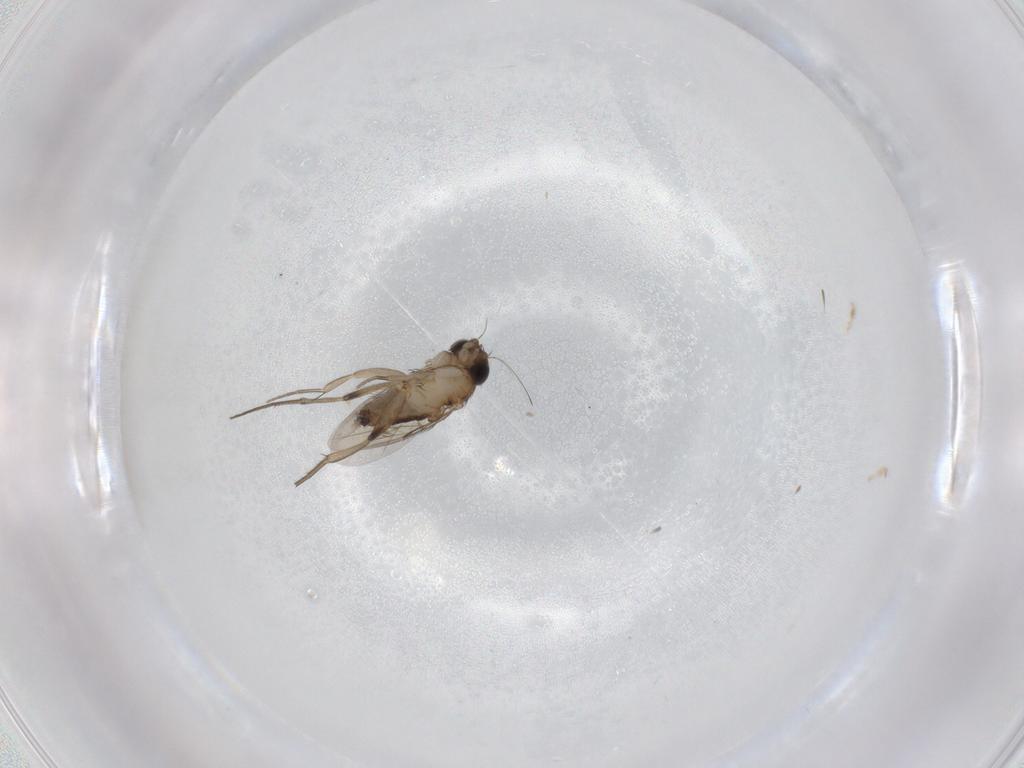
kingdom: Animalia
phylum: Arthropoda
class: Insecta
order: Diptera
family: Phoridae
